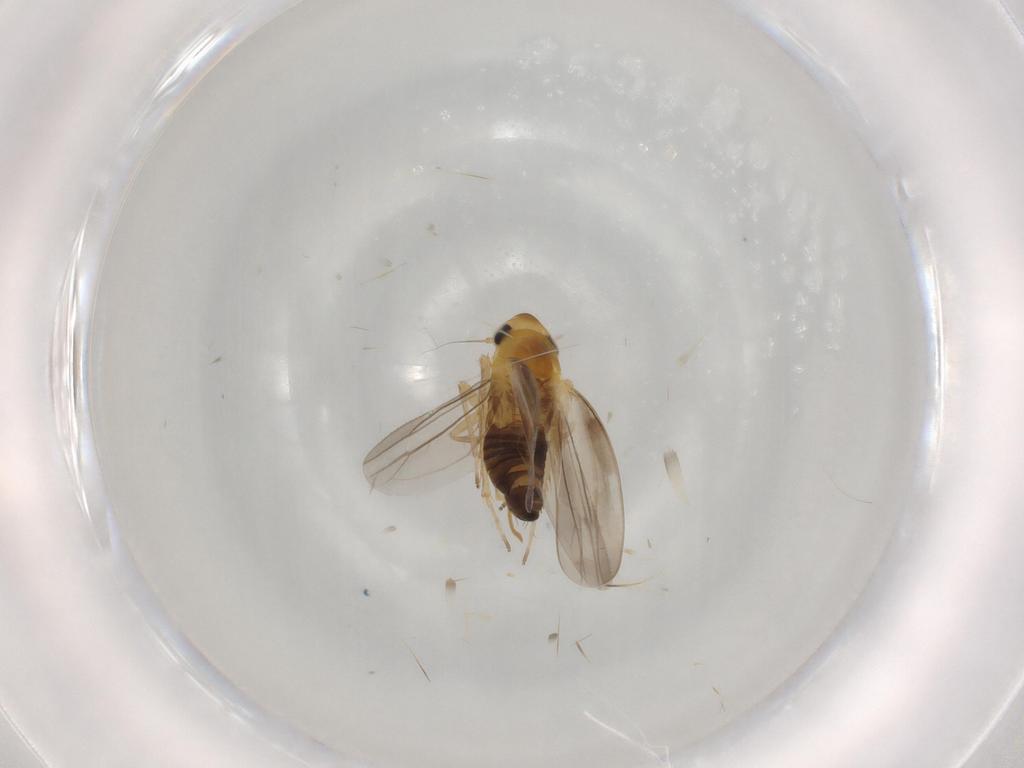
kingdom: Animalia
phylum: Arthropoda
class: Insecta
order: Hemiptera
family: Cicadellidae
